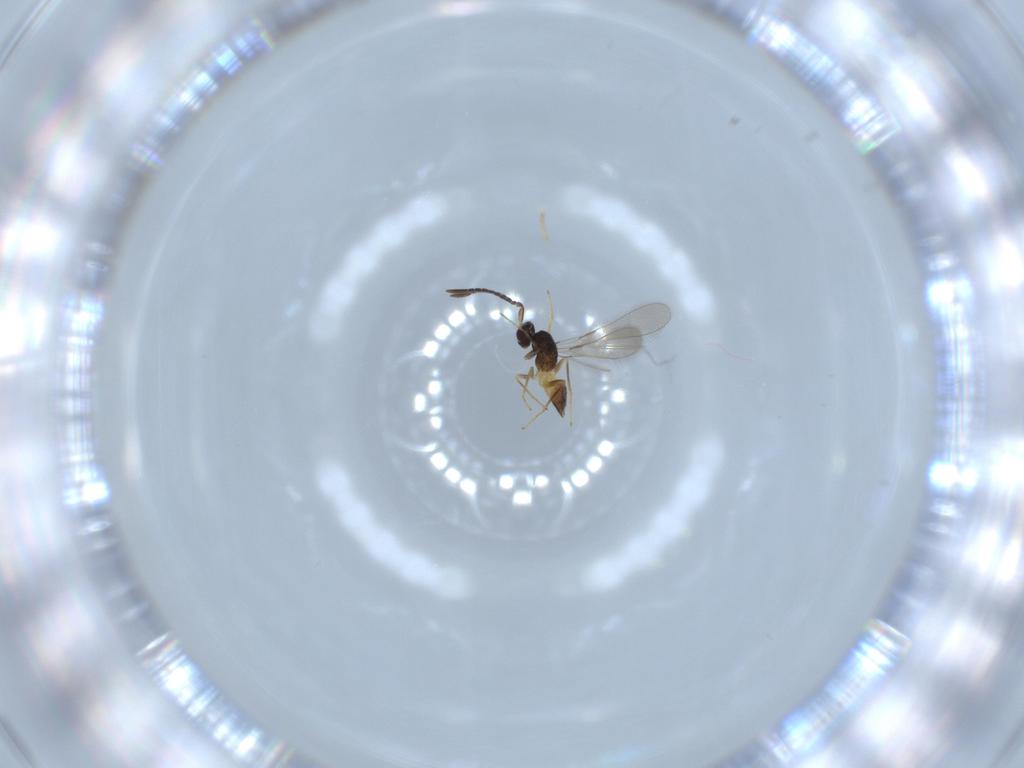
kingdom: Animalia
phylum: Arthropoda
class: Insecta
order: Hymenoptera
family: Mymaridae
